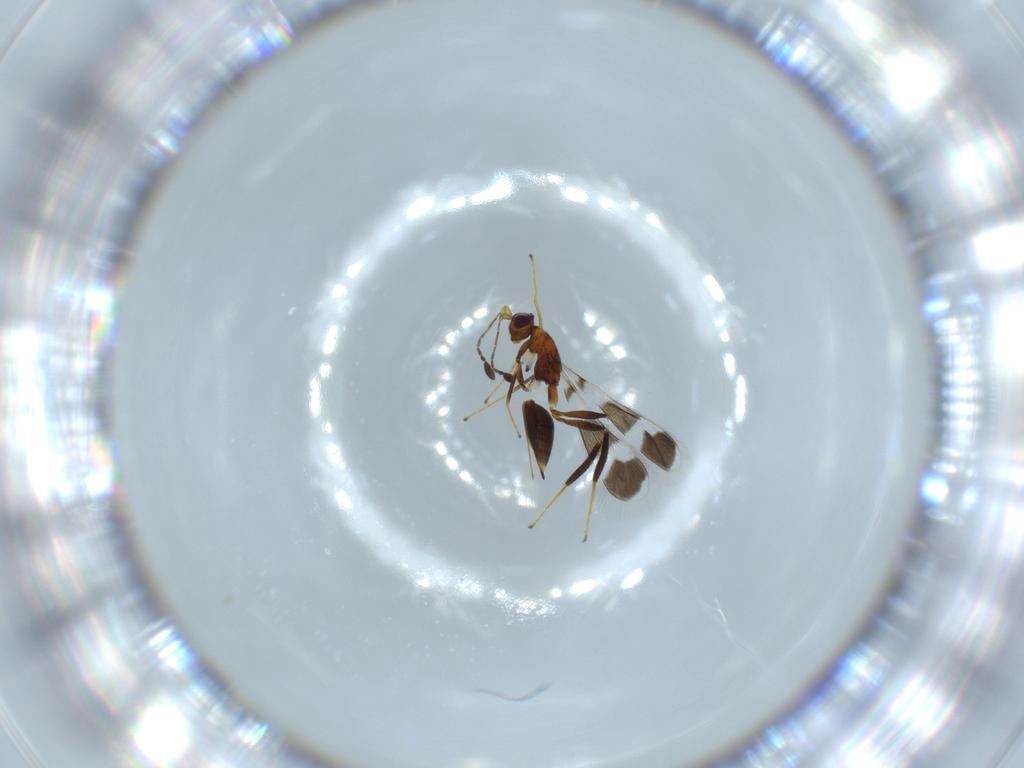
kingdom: Animalia
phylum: Arthropoda
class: Insecta
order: Hymenoptera
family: Mymaridae
